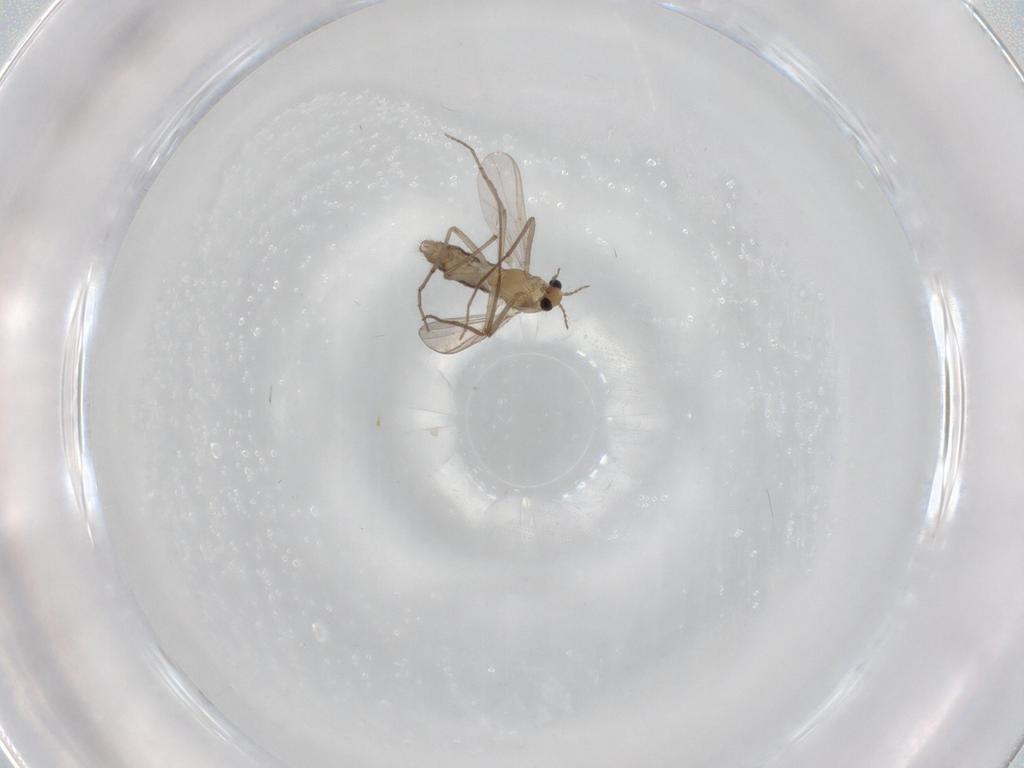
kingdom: Animalia
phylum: Arthropoda
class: Insecta
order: Diptera
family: Chironomidae
